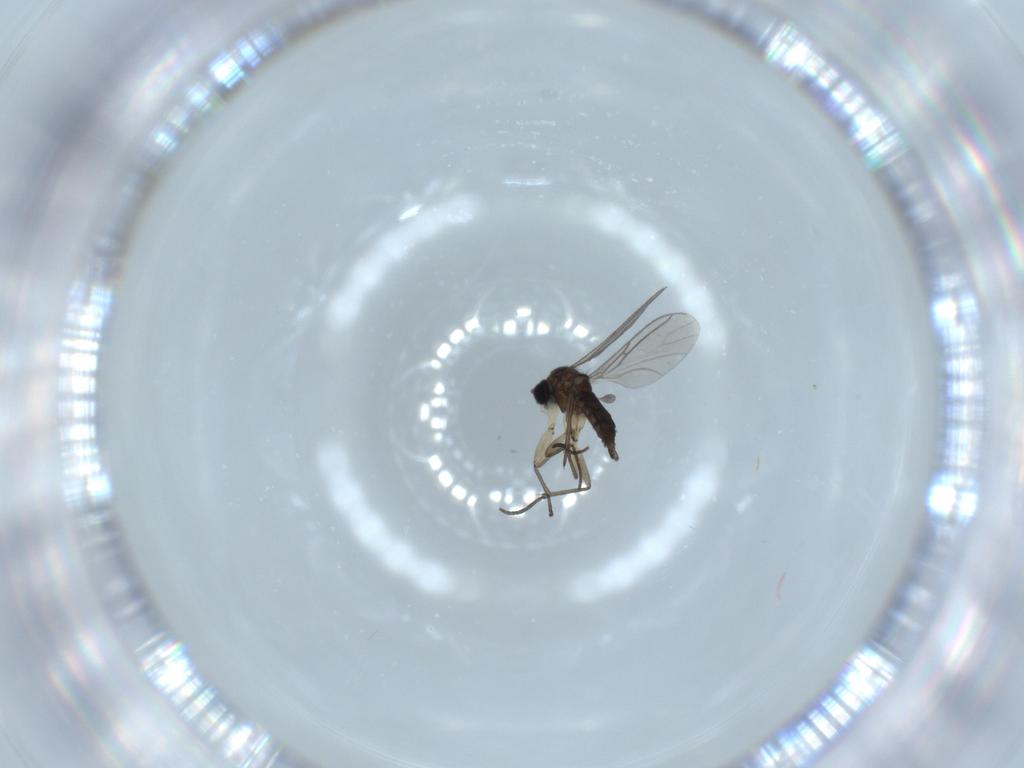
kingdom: Animalia
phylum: Arthropoda
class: Insecta
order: Diptera
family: Sciaridae
